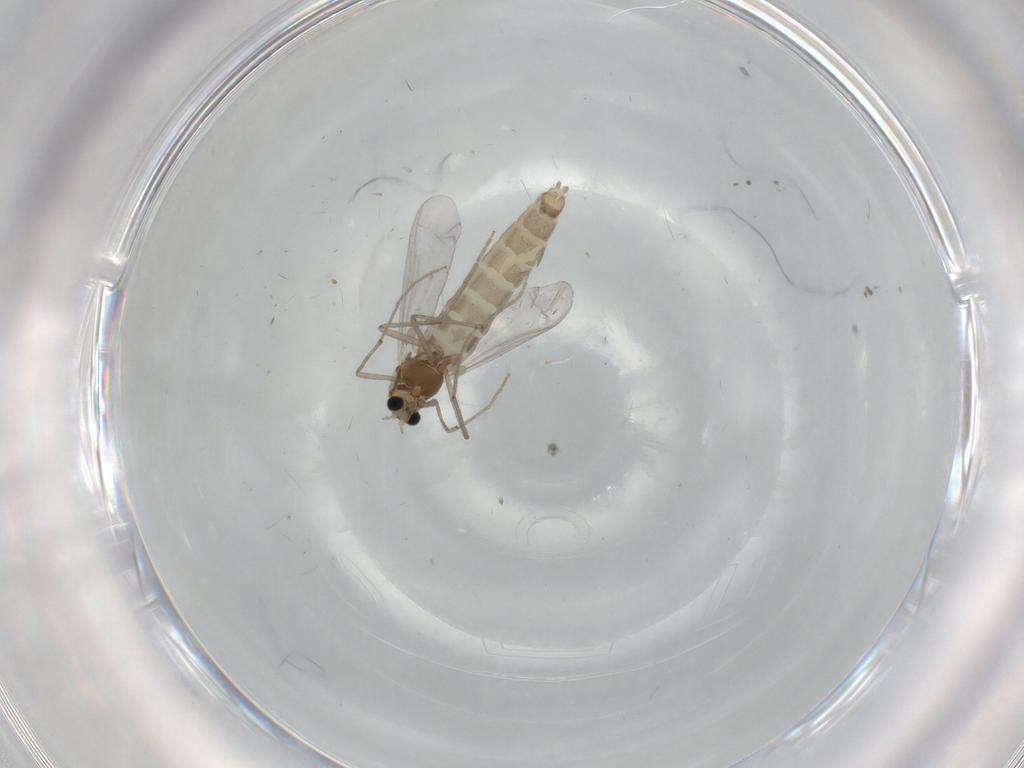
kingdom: Animalia
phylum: Arthropoda
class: Insecta
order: Diptera
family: Chironomidae
